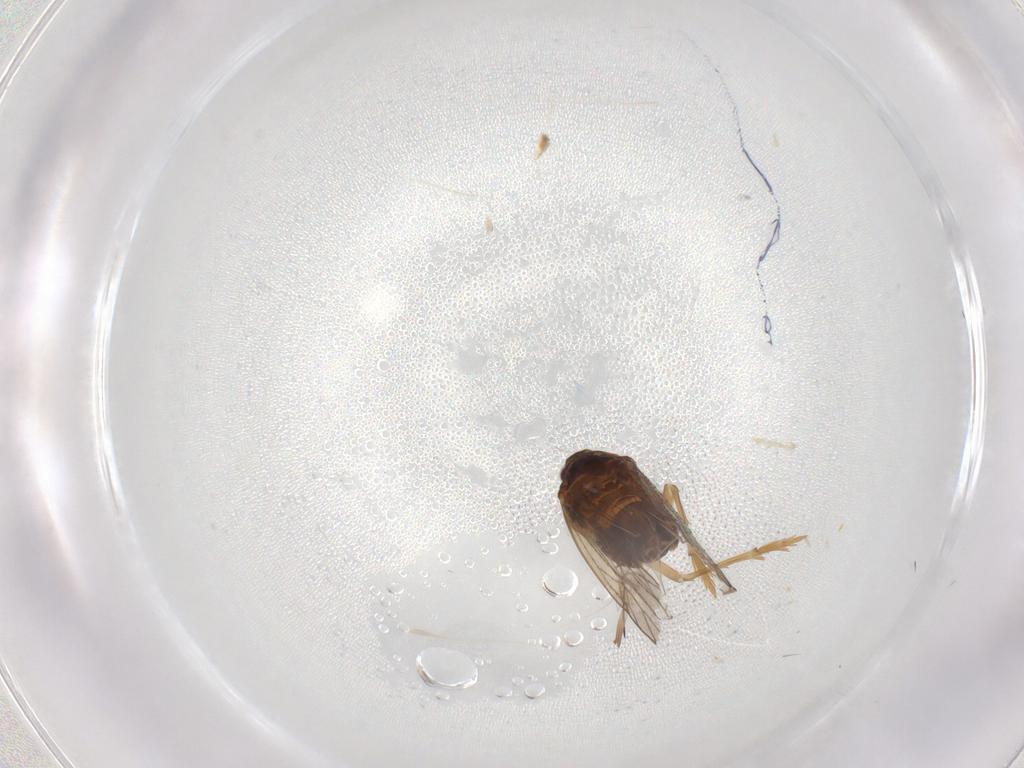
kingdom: Animalia
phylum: Arthropoda
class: Insecta
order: Hemiptera
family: Delphacidae
